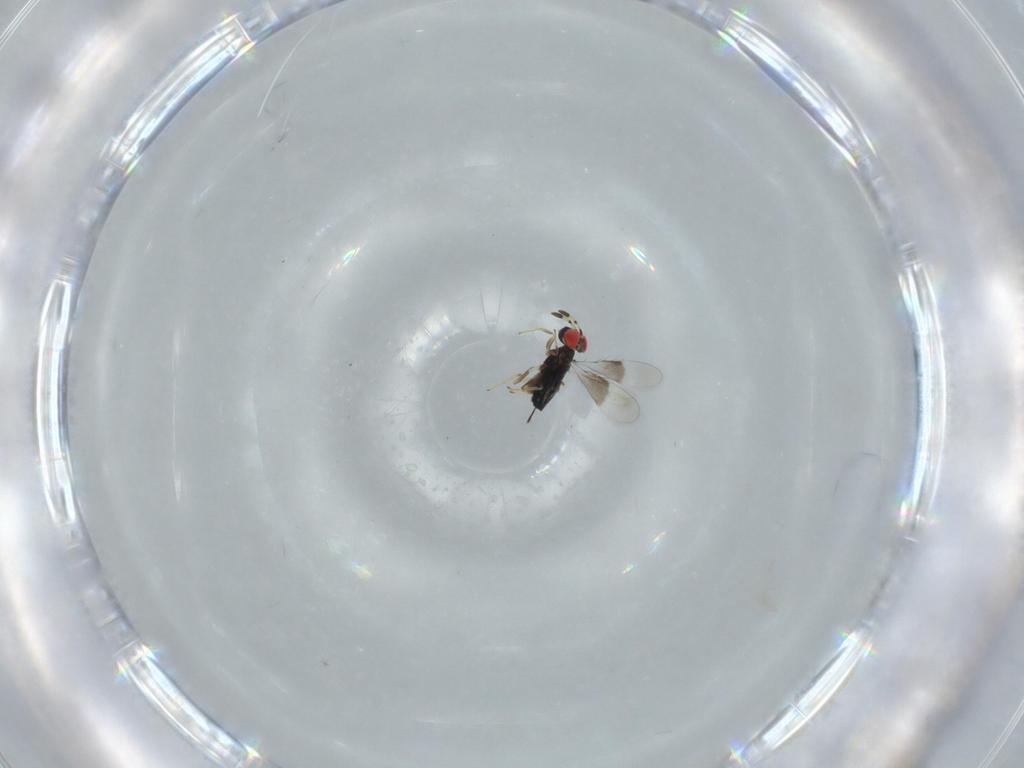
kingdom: Animalia
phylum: Arthropoda
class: Insecta
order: Hymenoptera
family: Azotidae
